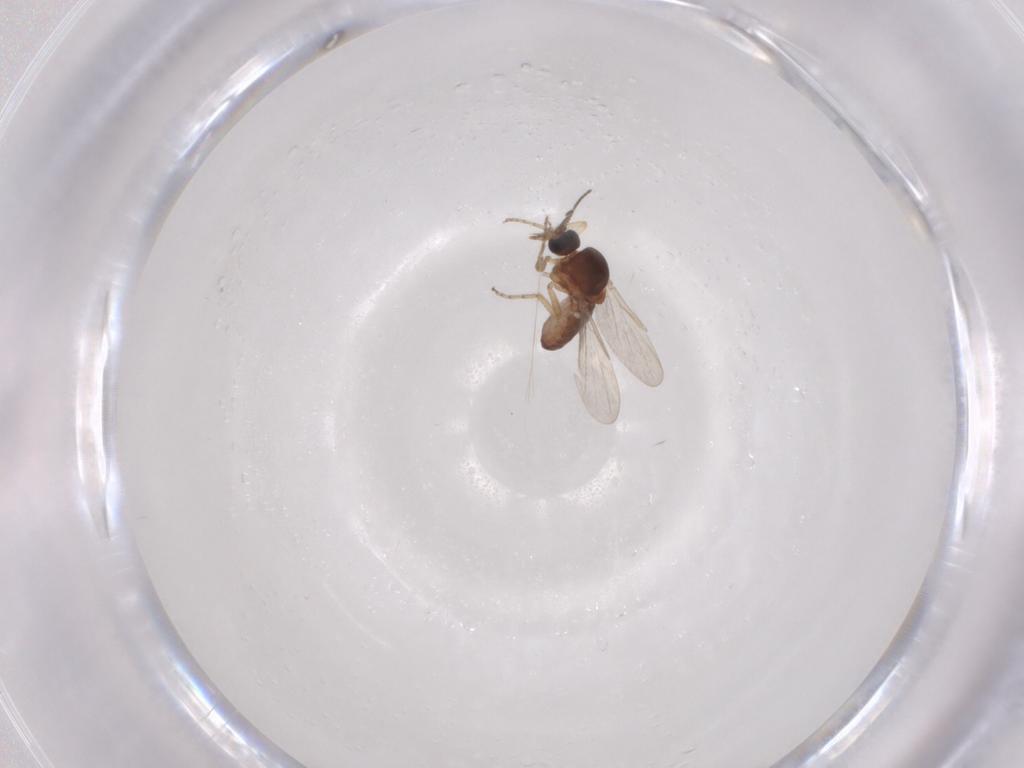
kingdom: Animalia
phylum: Arthropoda
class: Insecta
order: Diptera
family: Ceratopogonidae
